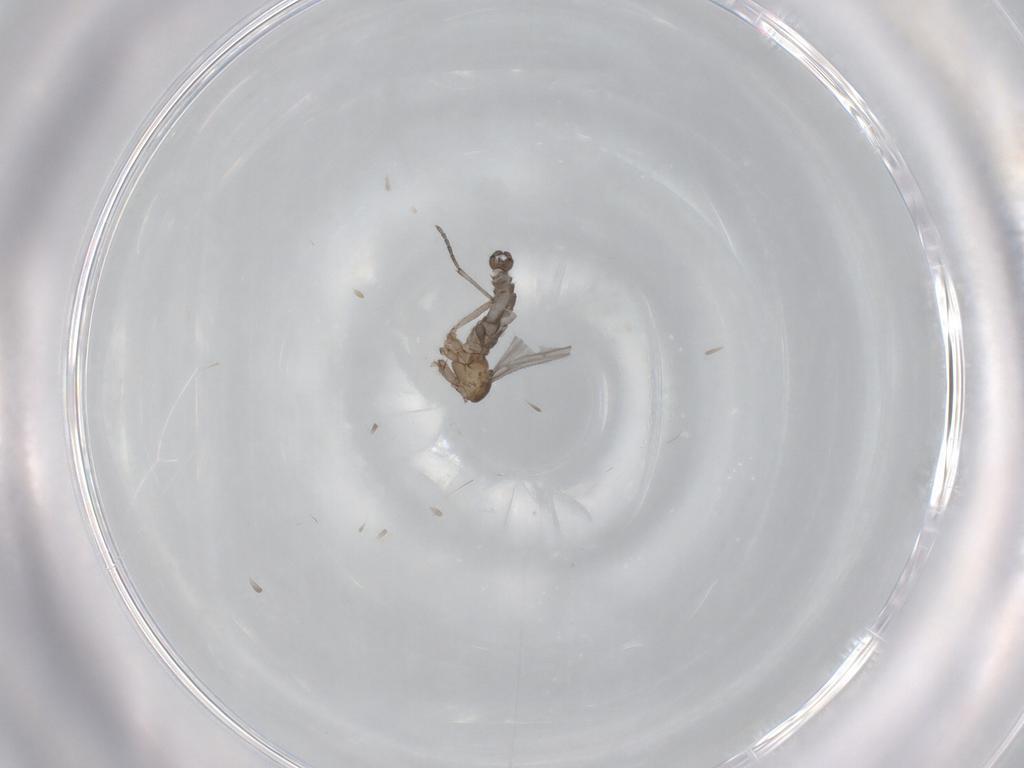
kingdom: Animalia
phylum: Arthropoda
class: Insecta
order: Diptera
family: Sciaridae
